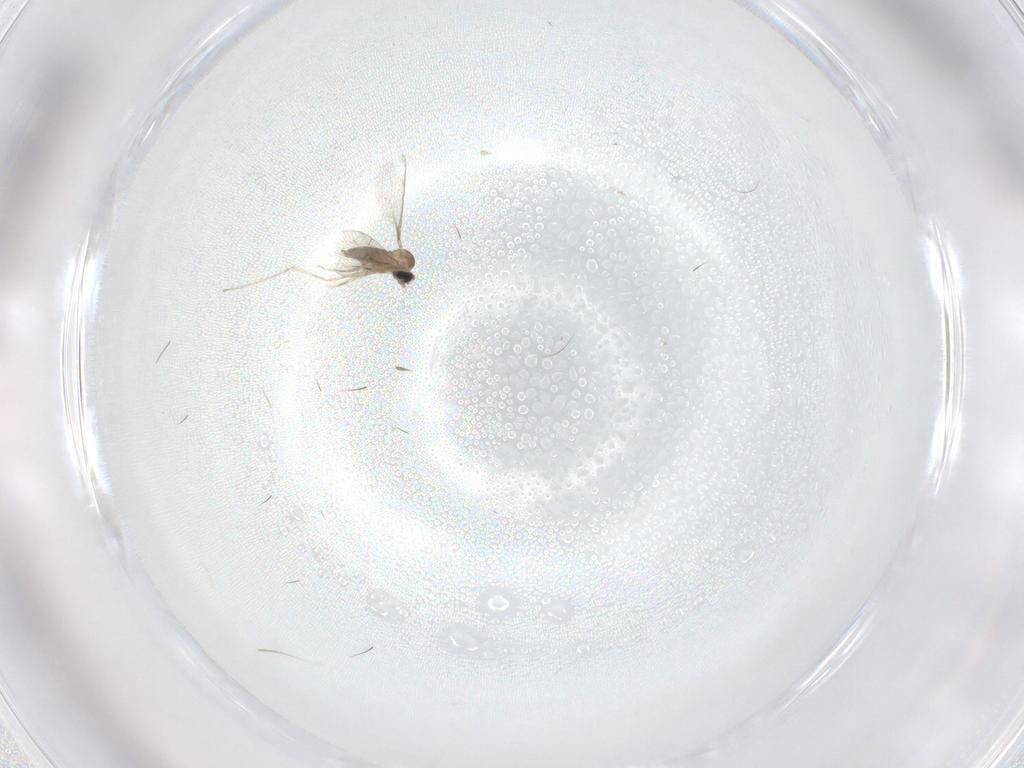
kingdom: Animalia
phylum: Arthropoda
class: Insecta
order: Diptera
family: Cecidomyiidae
